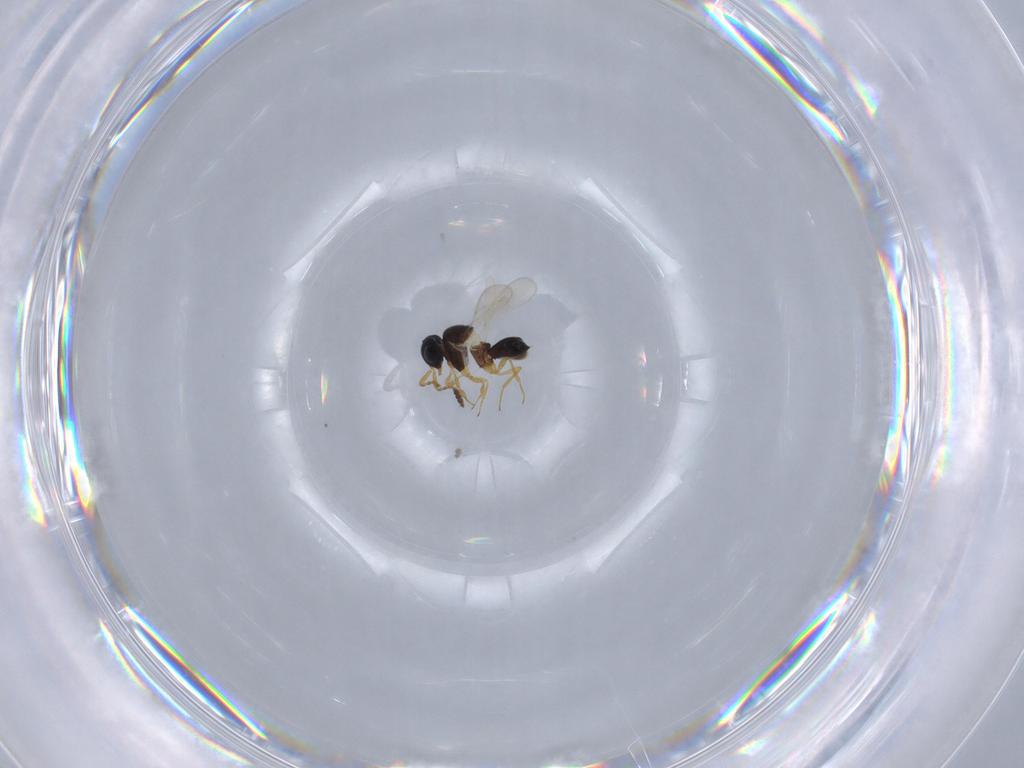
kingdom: Animalia
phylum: Arthropoda
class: Insecta
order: Hymenoptera
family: Scelionidae
